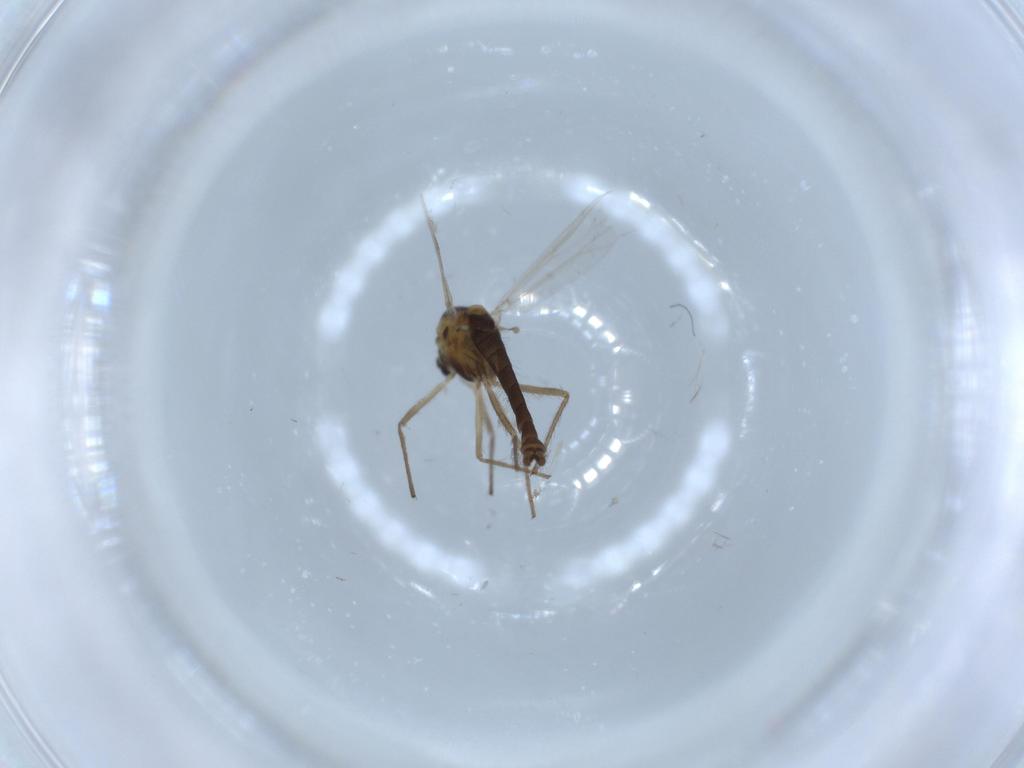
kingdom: Animalia
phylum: Arthropoda
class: Insecta
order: Diptera
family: Chironomidae
